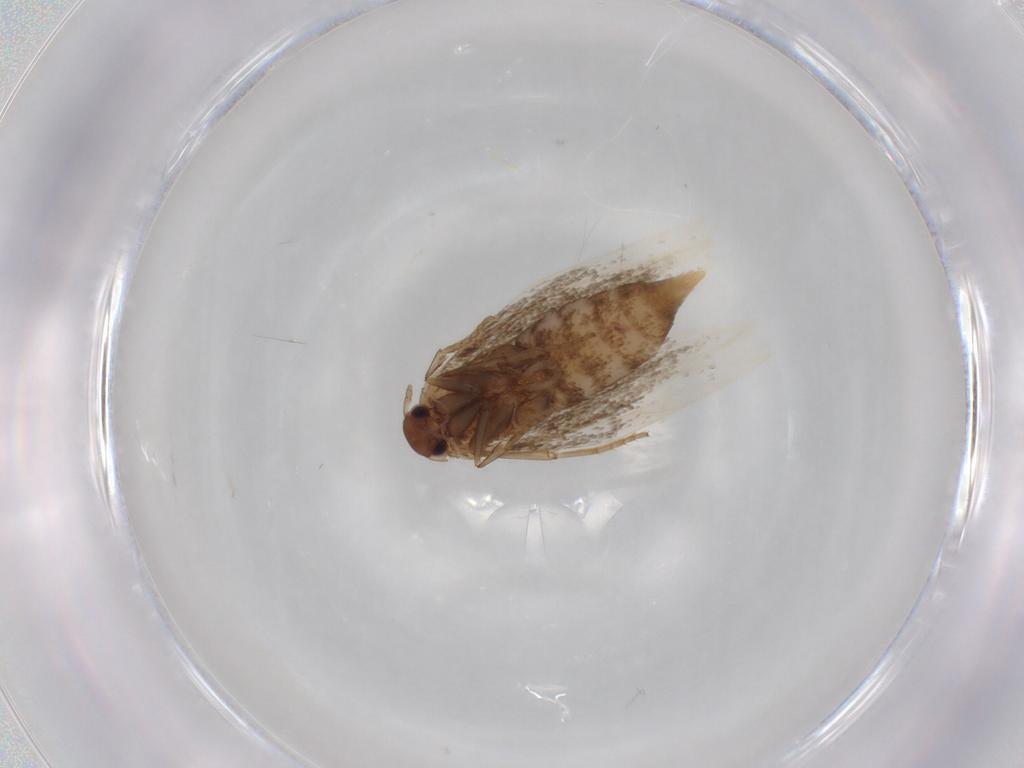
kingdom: Animalia
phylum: Arthropoda
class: Insecta
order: Lepidoptera
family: Elachistidae
